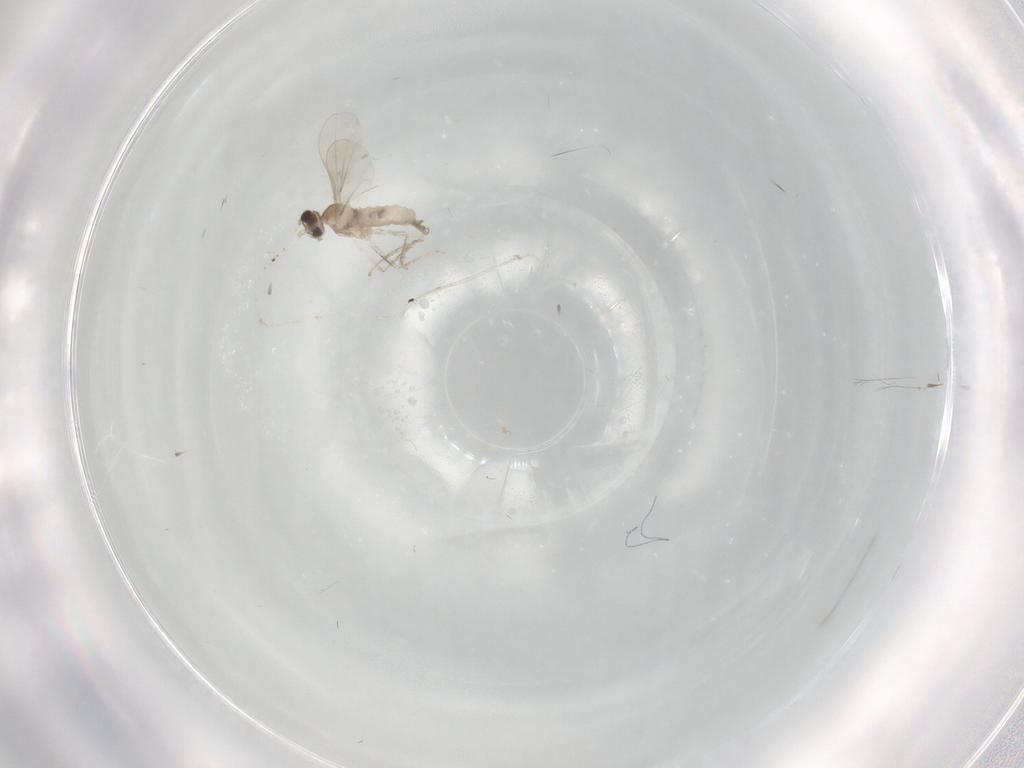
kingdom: Animalia
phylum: Arthropoda
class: Insecta
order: Diptera
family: Cecidomyiidae
